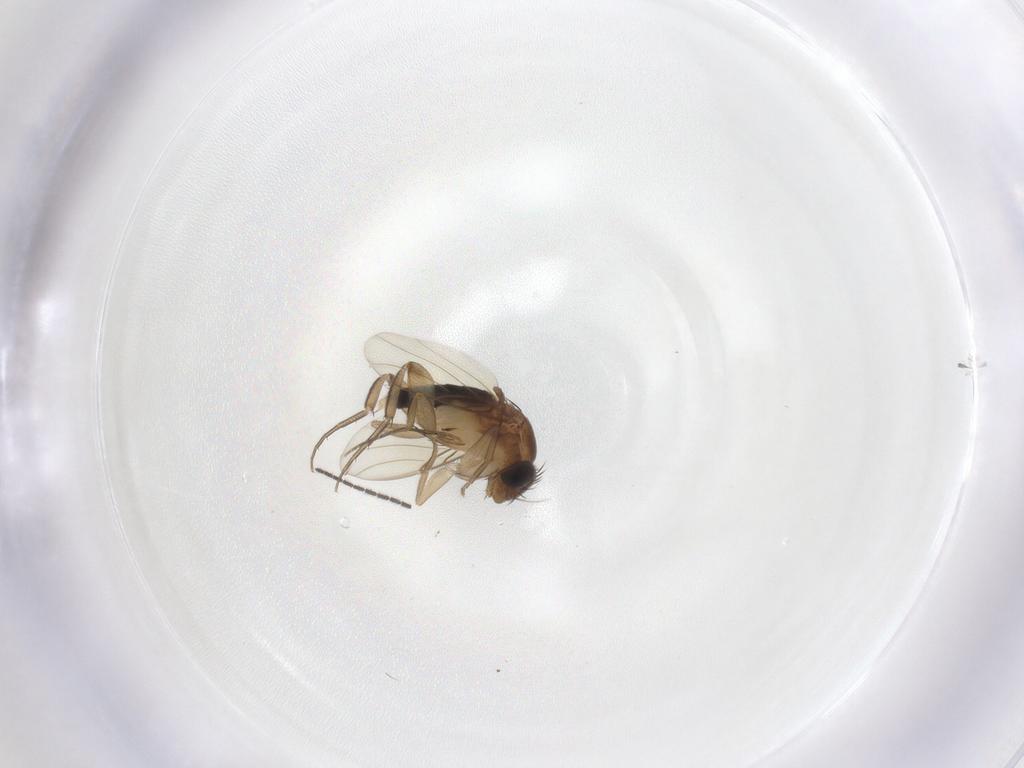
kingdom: Animalia
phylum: Arthropoda
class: Insecta
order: Diptera
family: Phoridae
